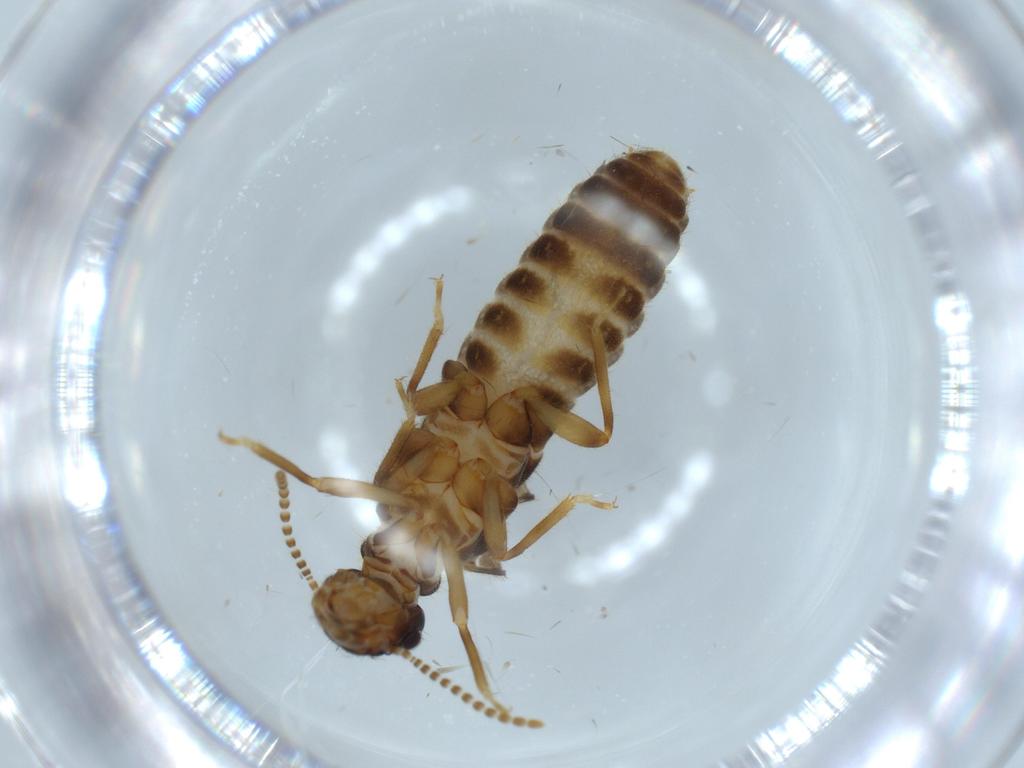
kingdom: Animalia
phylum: Arthropoda
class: Insecta
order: Blattodea
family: Termitidae
